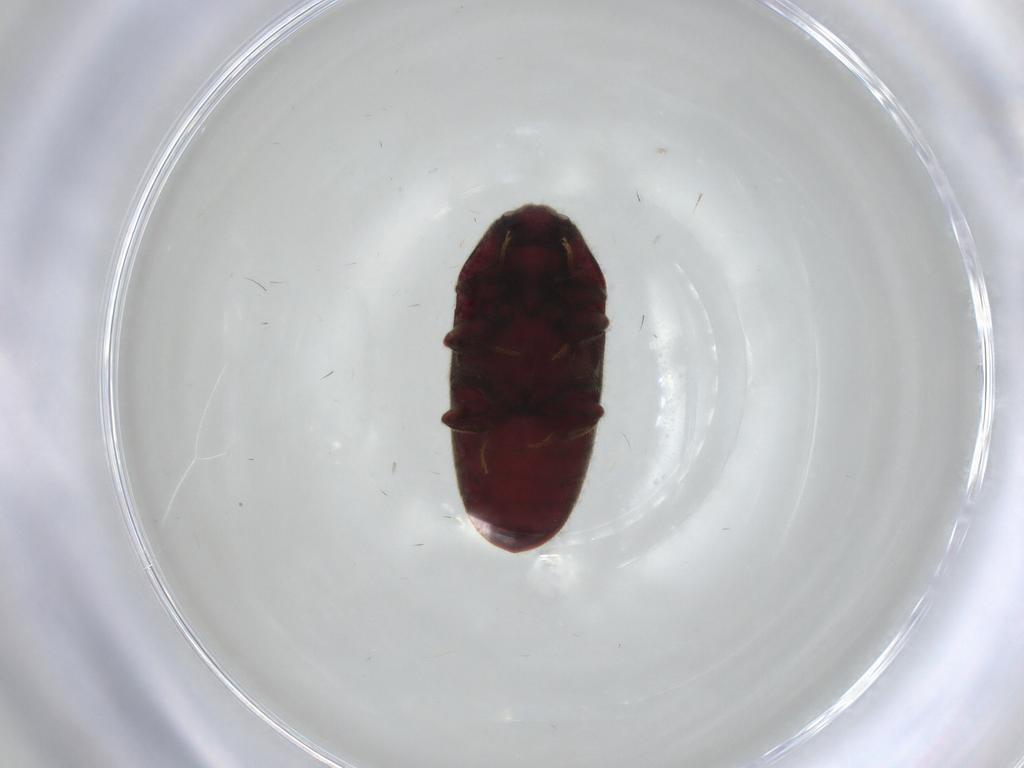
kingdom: Animalia
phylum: Arthropoda
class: Insecta
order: Coleoptera
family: Throscidae
